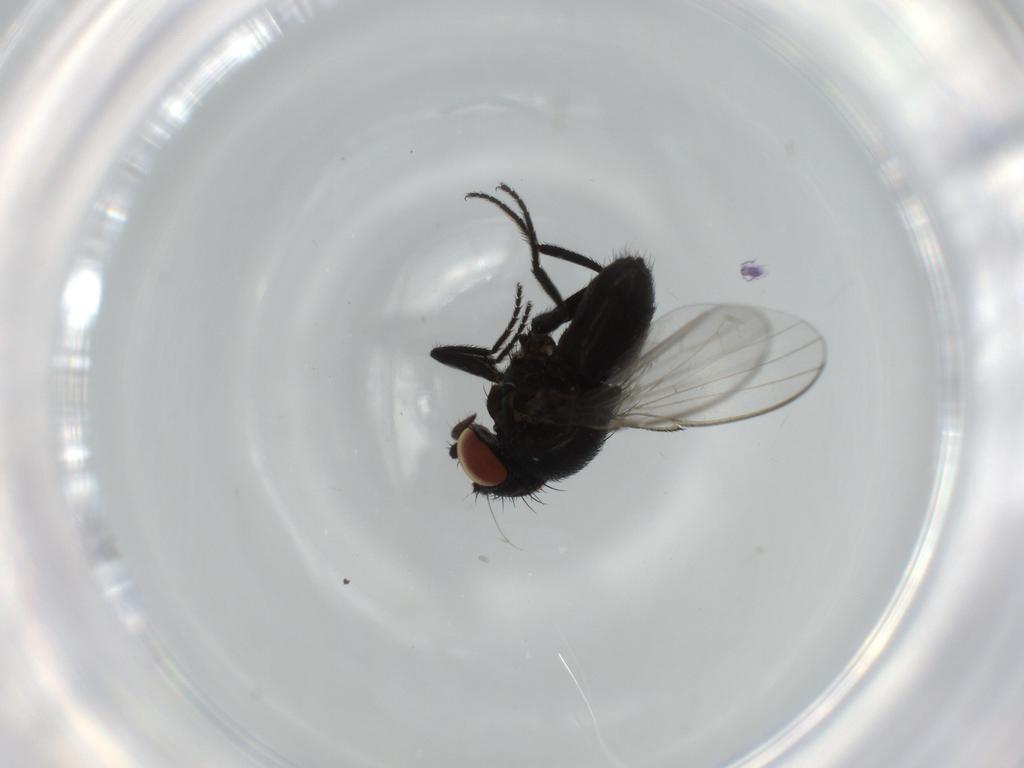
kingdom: Animalia
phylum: Arthropoda
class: Insecta
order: Diptera
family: Milichiidae
